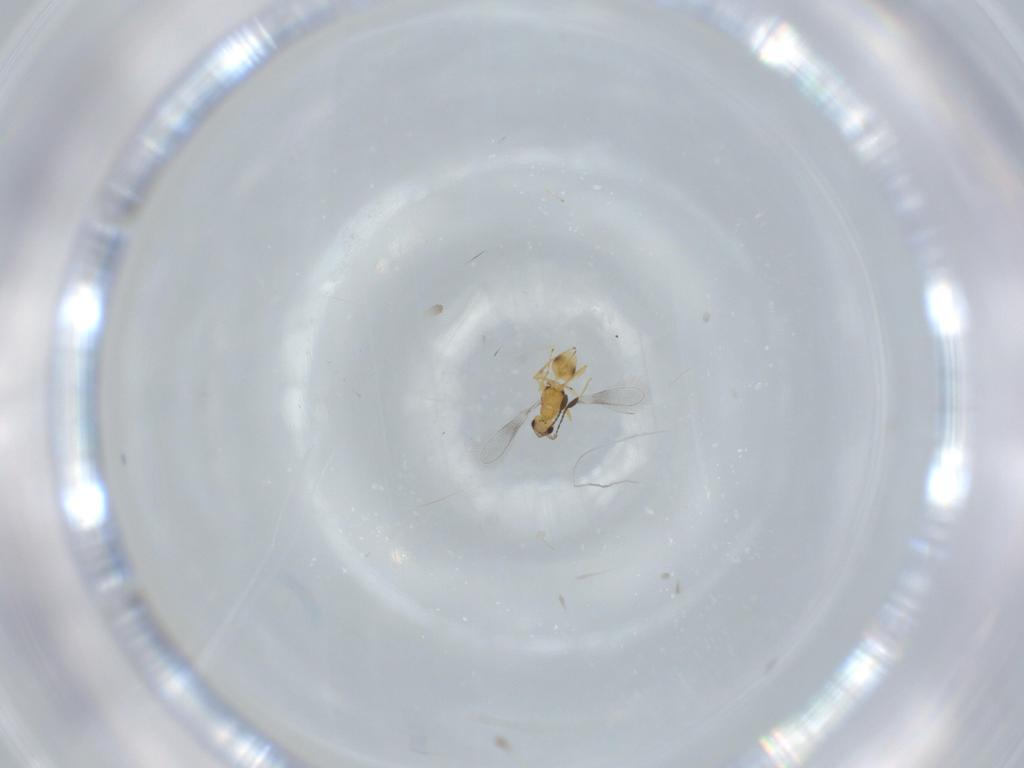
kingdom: Animalia
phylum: Arthropoda
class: Insecta
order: Hymenoptera
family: Mymaridae
